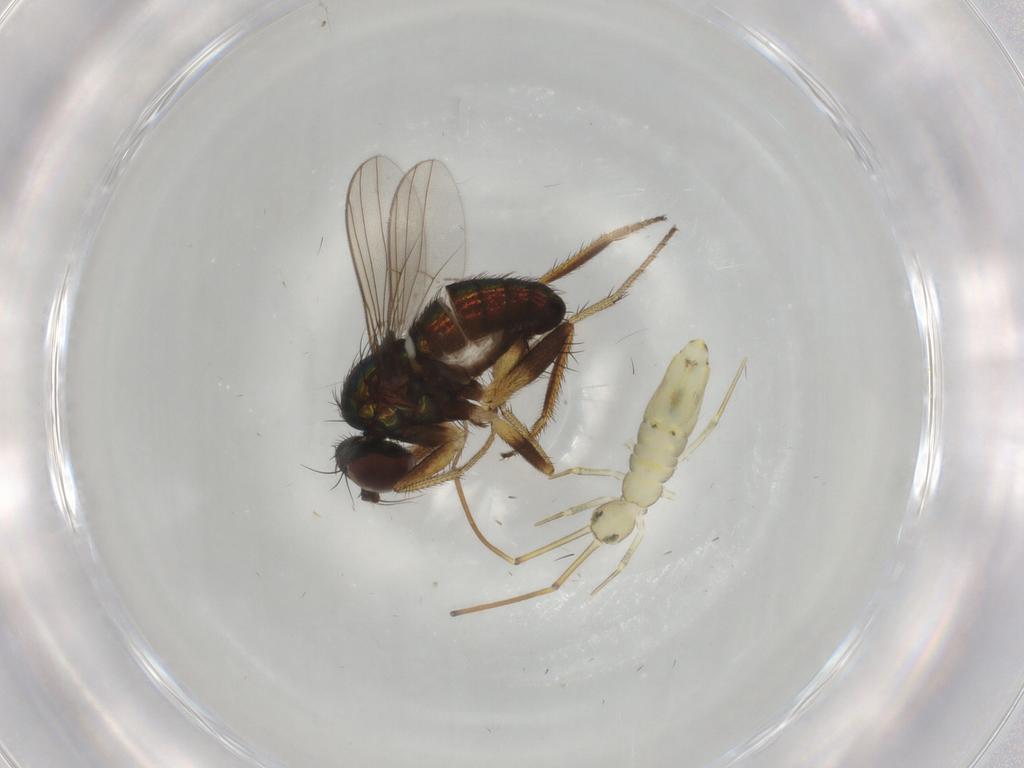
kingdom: Animalia
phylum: Arthropoda
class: Insecta
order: Diptera
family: Dolichopodidae
